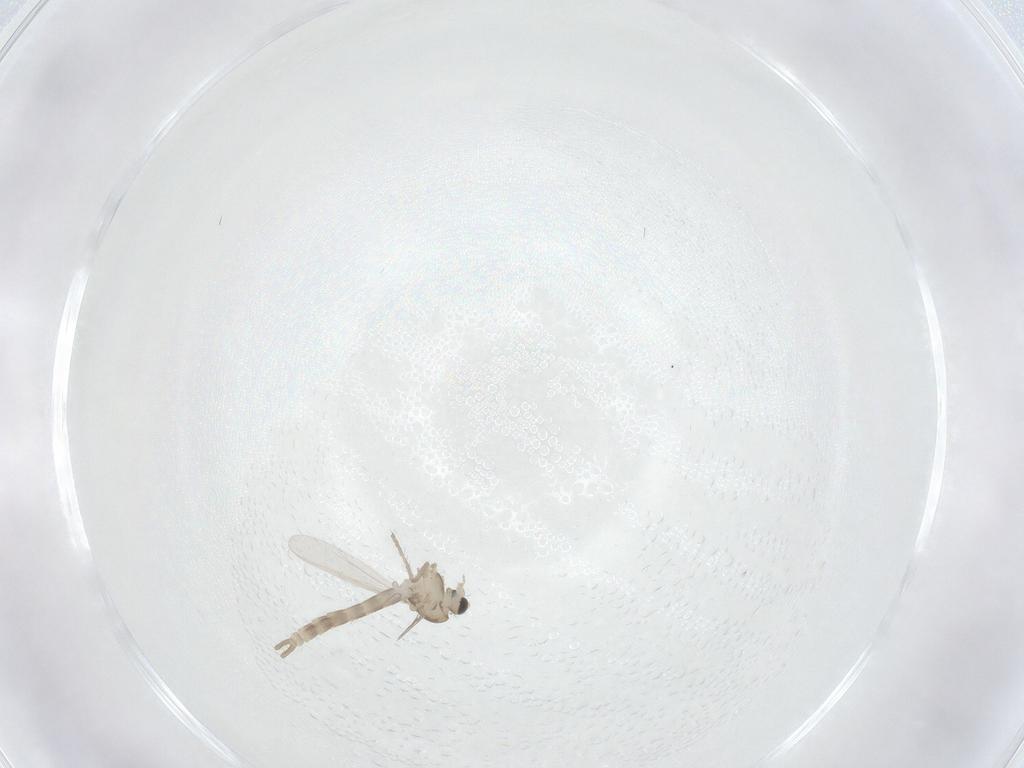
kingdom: Animalia
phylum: Arthropoda
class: Insecta
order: Diptera
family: Chironomidae
